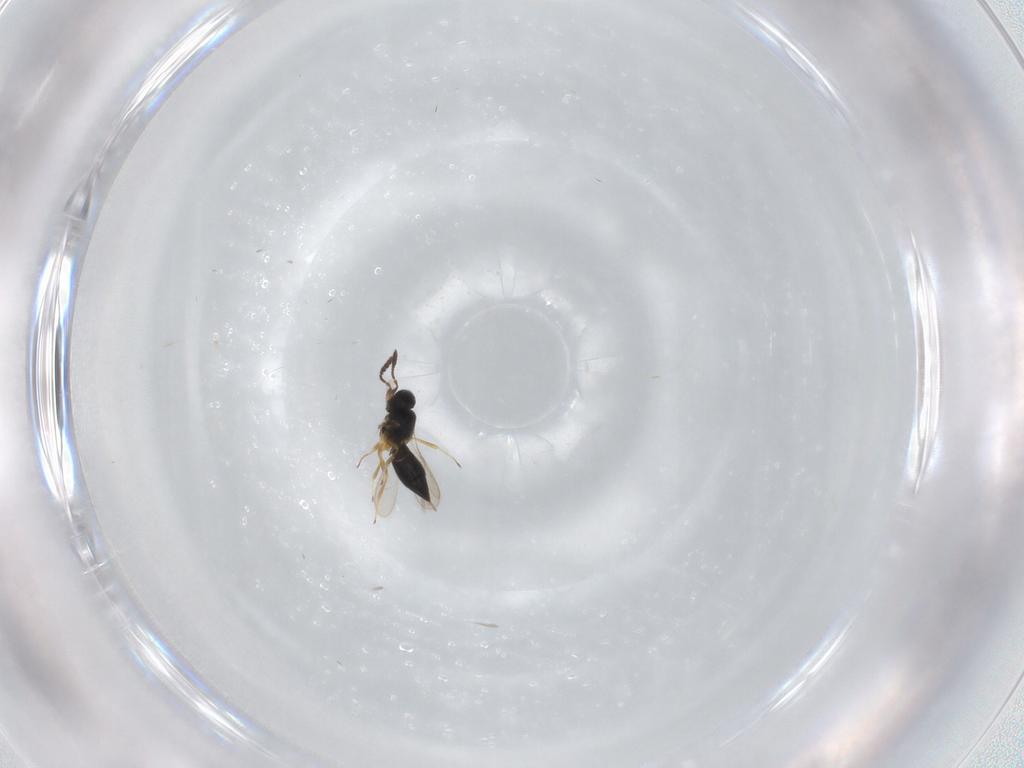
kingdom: Animalia
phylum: Arthropoda
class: Insecta
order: Hymenoptera
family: Scelionidae
